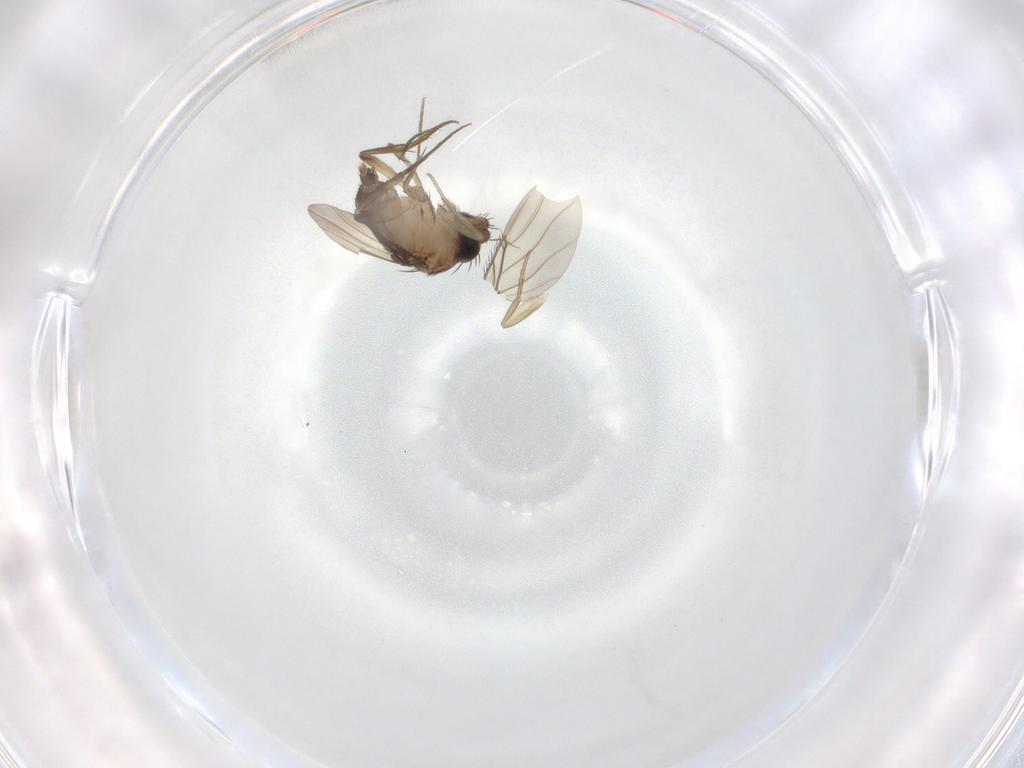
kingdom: Animalia
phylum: Arthropoda
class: Insecta
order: Diptera
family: Phoridae
